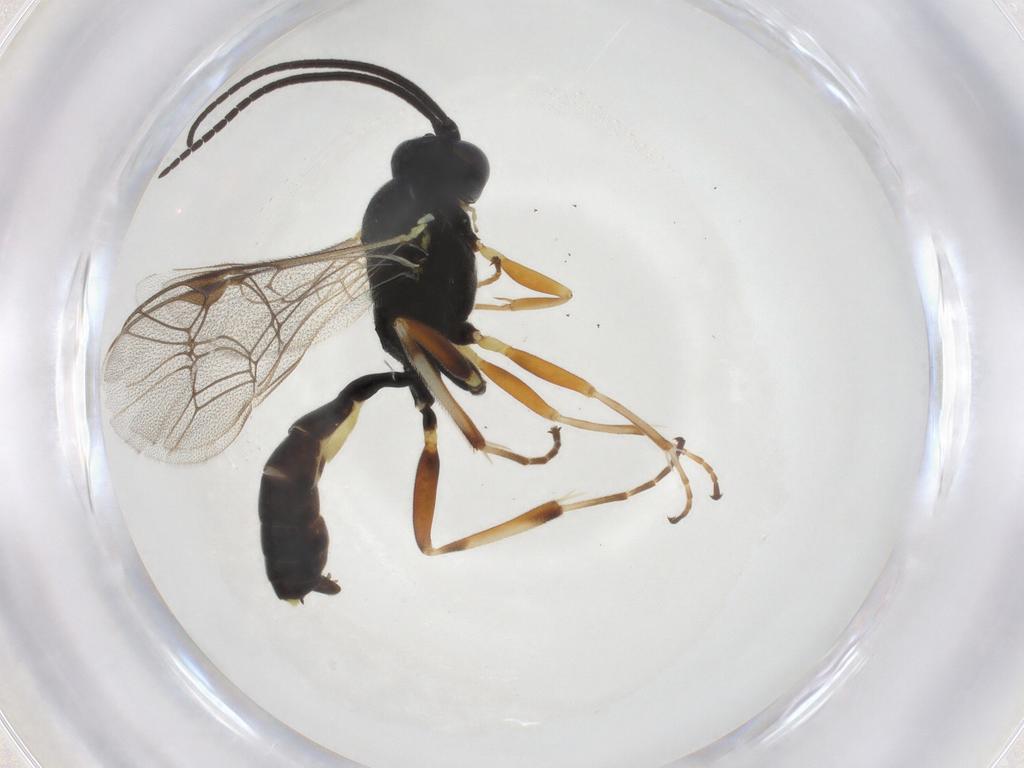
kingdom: Animalia
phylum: Arthropoda
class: Insecta
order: Hymenoptera
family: Ichneumonidae
